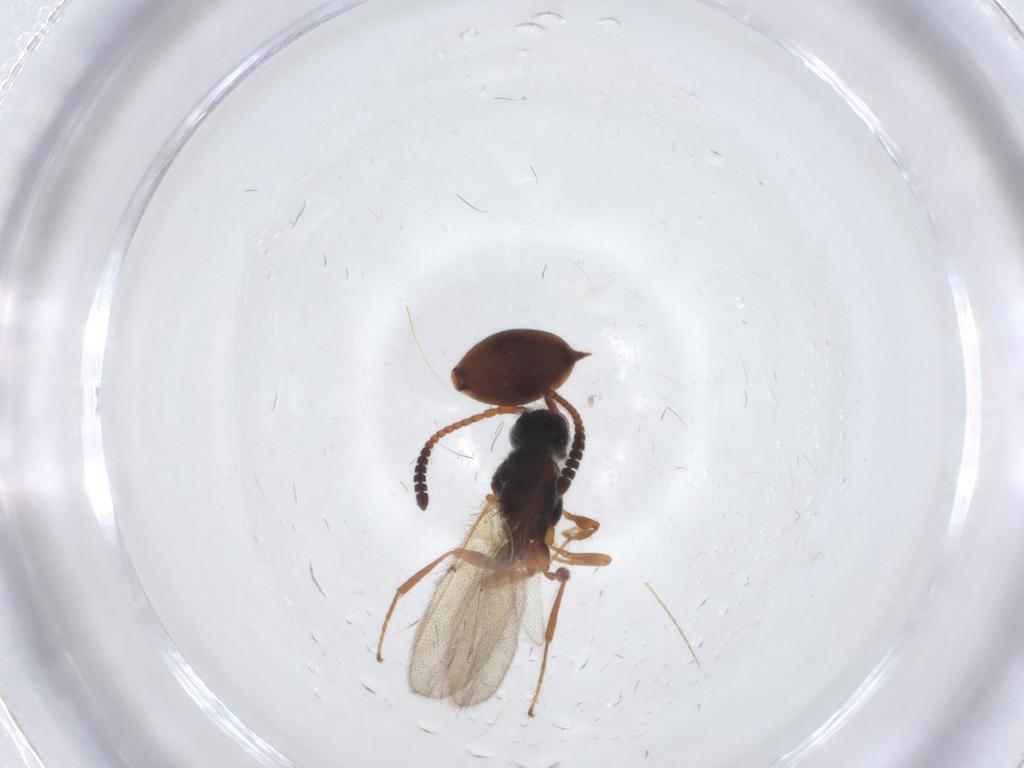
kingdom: Animalia
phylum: Arthropoda
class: Insecta
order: Hymenoptera
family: Diapriidae
